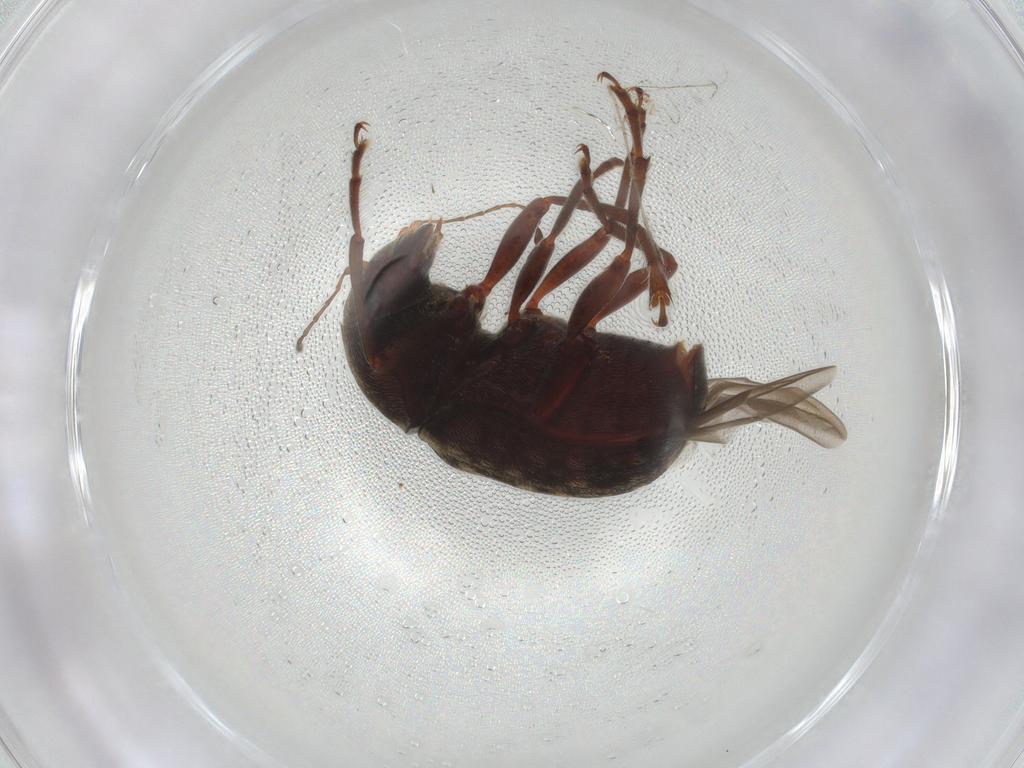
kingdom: Animalia
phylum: Arthropoda
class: Insecta
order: Coleoptera
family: Anthribidae
